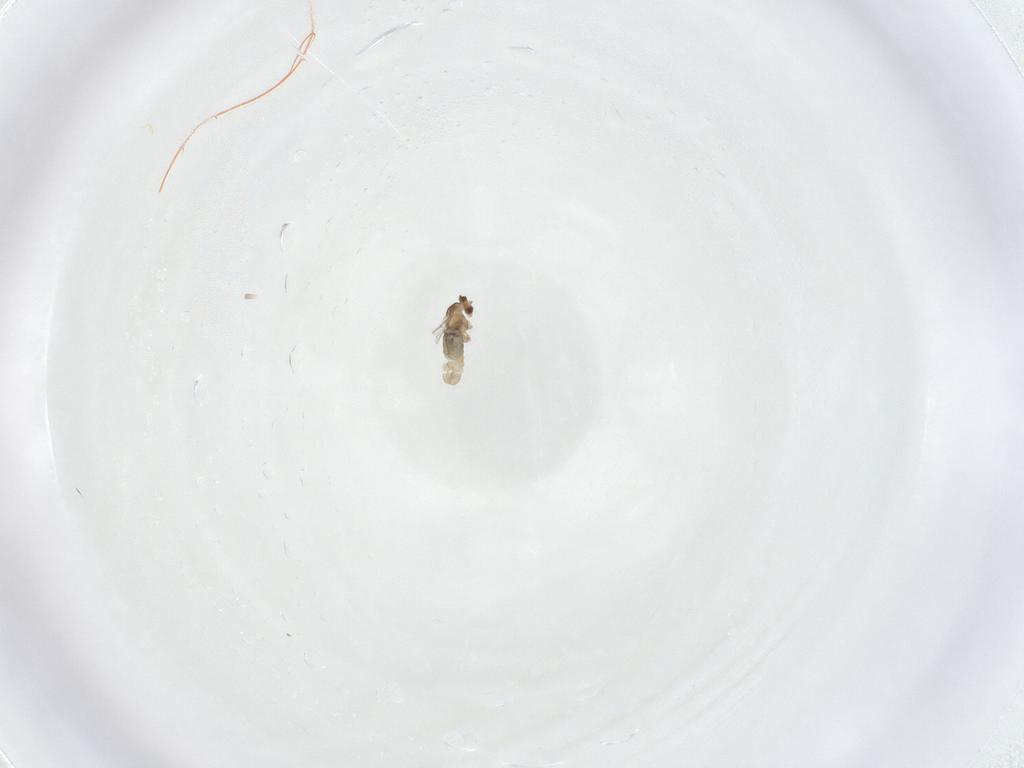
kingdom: Animalia
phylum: Arthropoda
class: Insecta
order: Diptera
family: Cecidomyiidae
